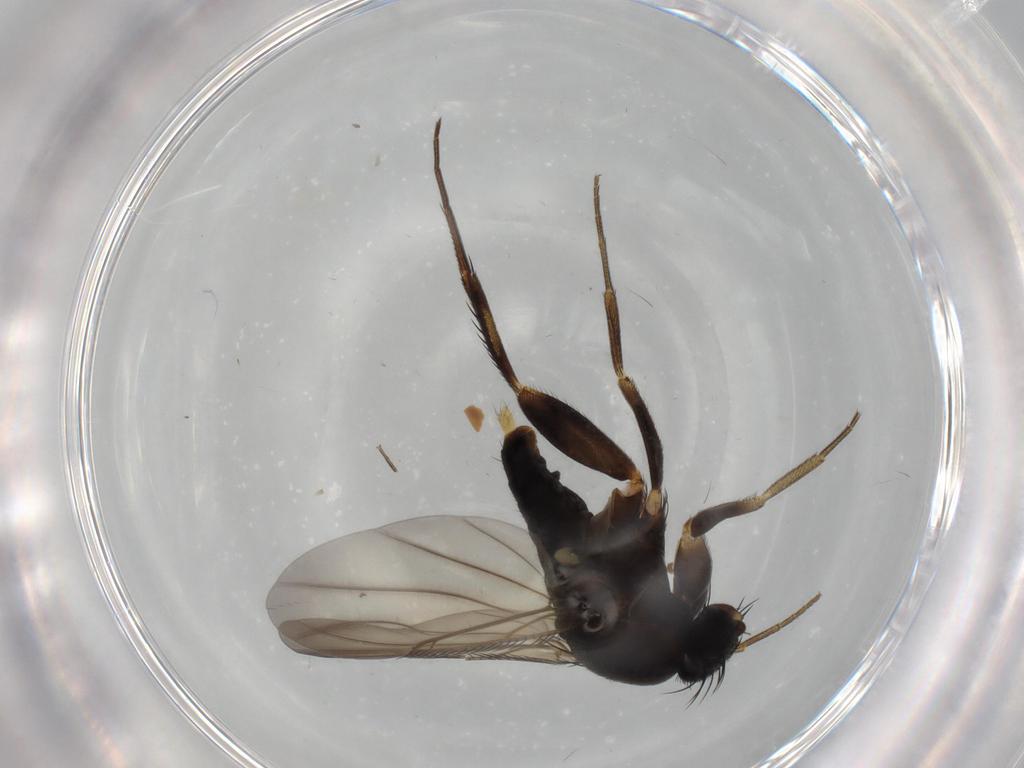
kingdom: Animalia
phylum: Arthropoda
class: Insecta
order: Diptera
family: Phoridae
